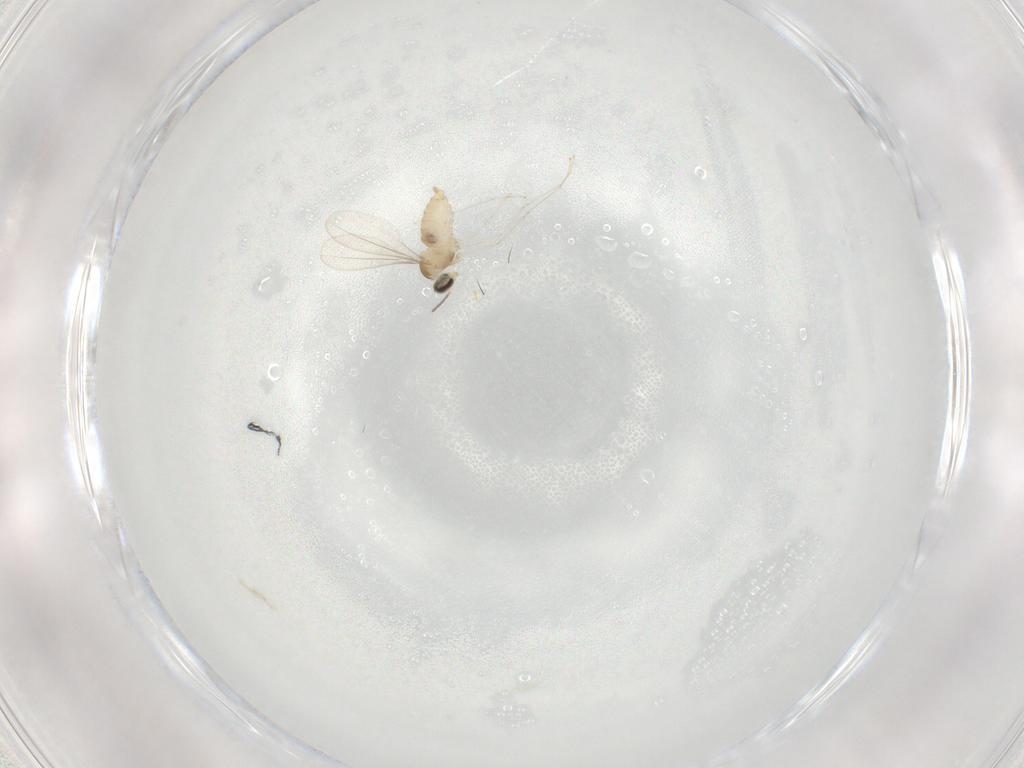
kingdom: Animalia
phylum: Arthropoda
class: Insecta
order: Diptera
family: Cecidomyiidae
